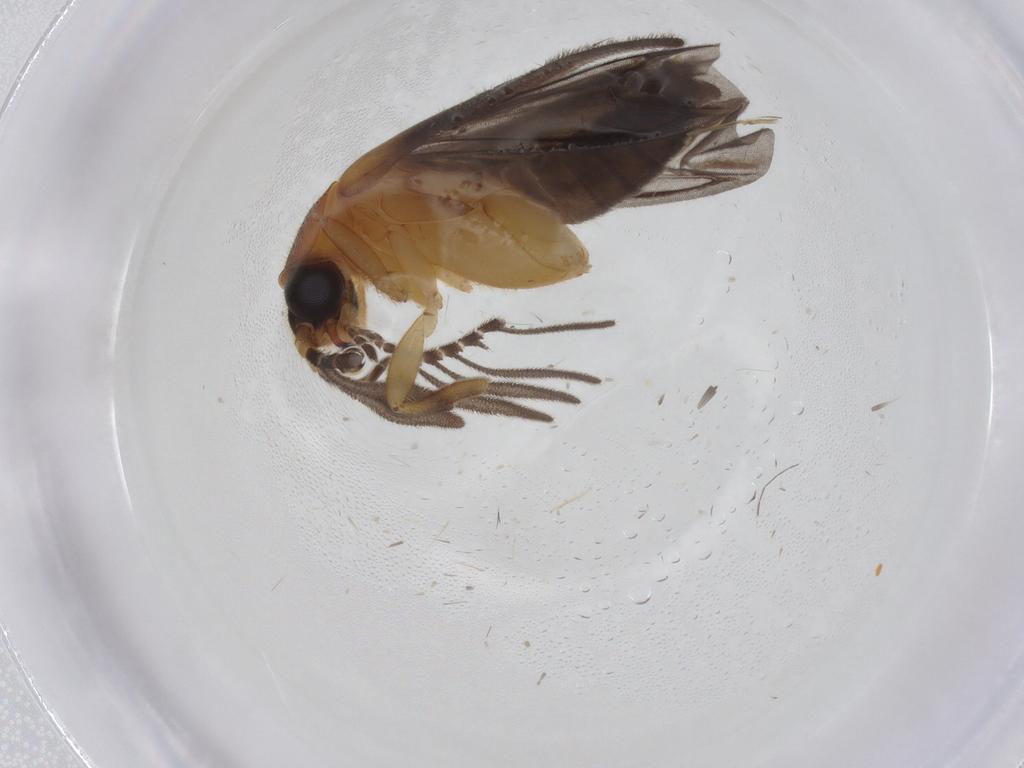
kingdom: Animalia
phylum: Arthropoda
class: Insecta
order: Coleoptera
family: Lampyridae
